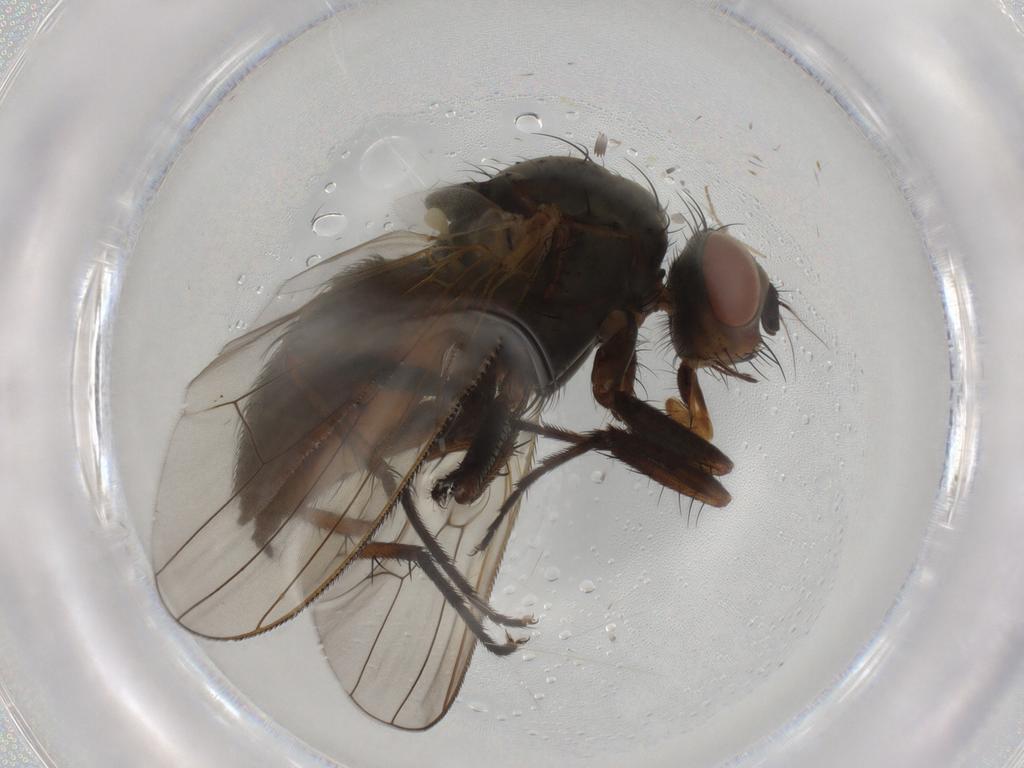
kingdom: Animalia
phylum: Arthropoda
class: Insecta
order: Diptera
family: Anthomyiidae
